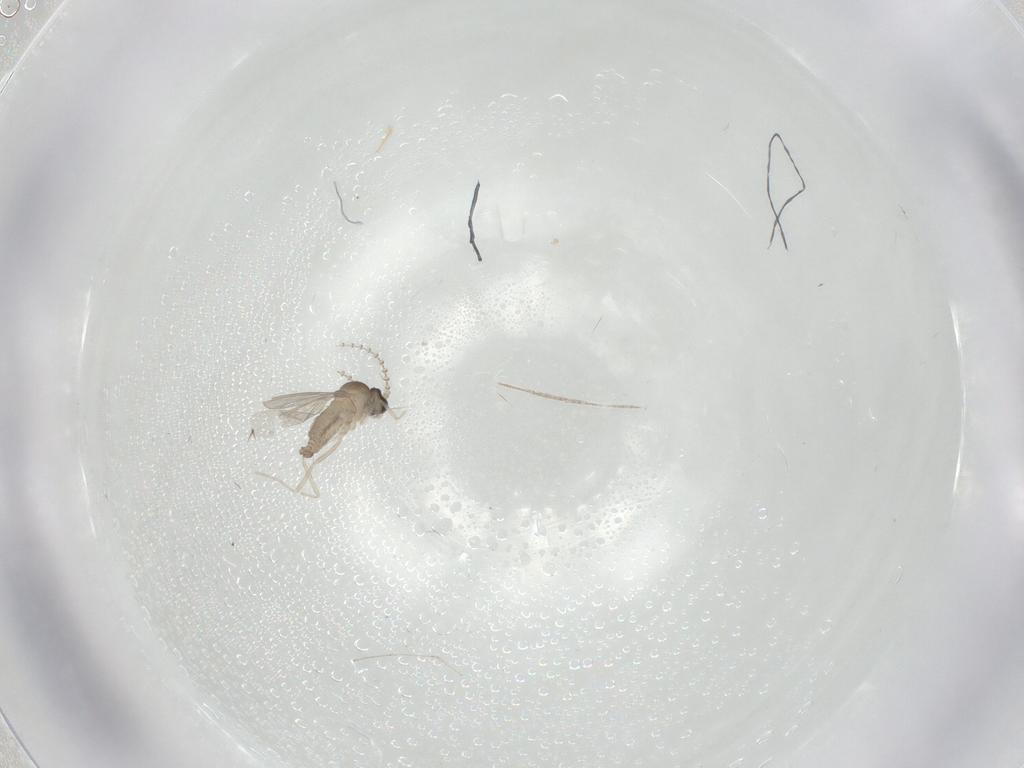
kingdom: Animalia
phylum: Arthropoda
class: Insecta
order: Diptera
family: Cecidomyiidae
